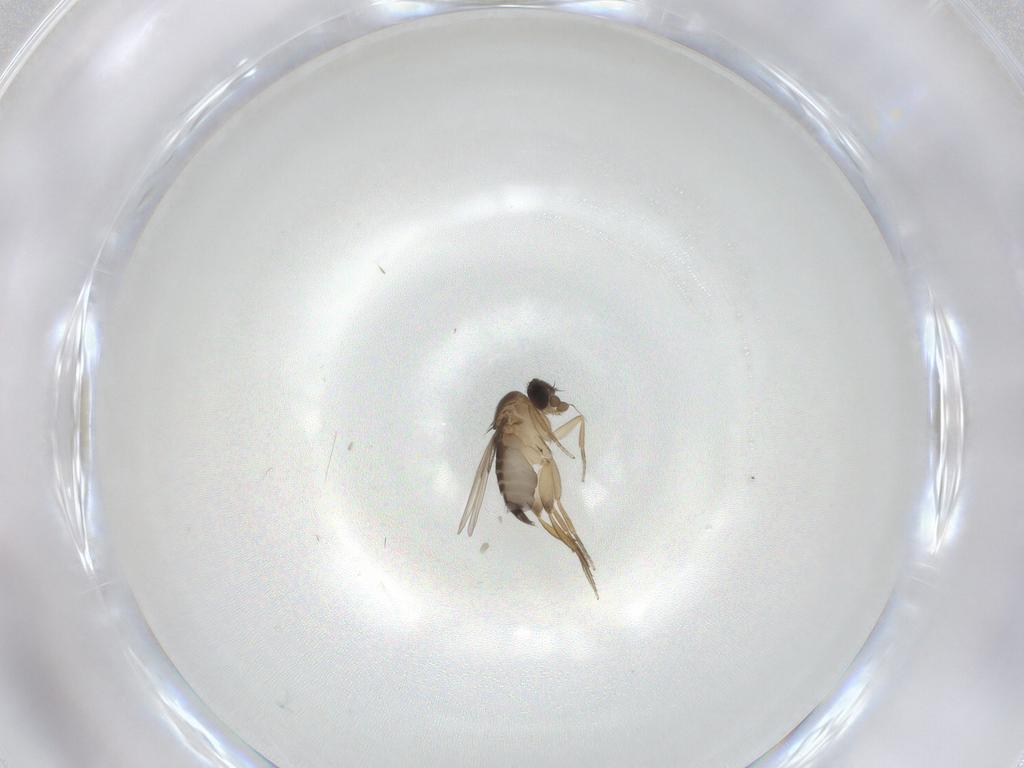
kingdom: Animalia
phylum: Arthropoda
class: Insecta
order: Diptera
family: Phoridae
